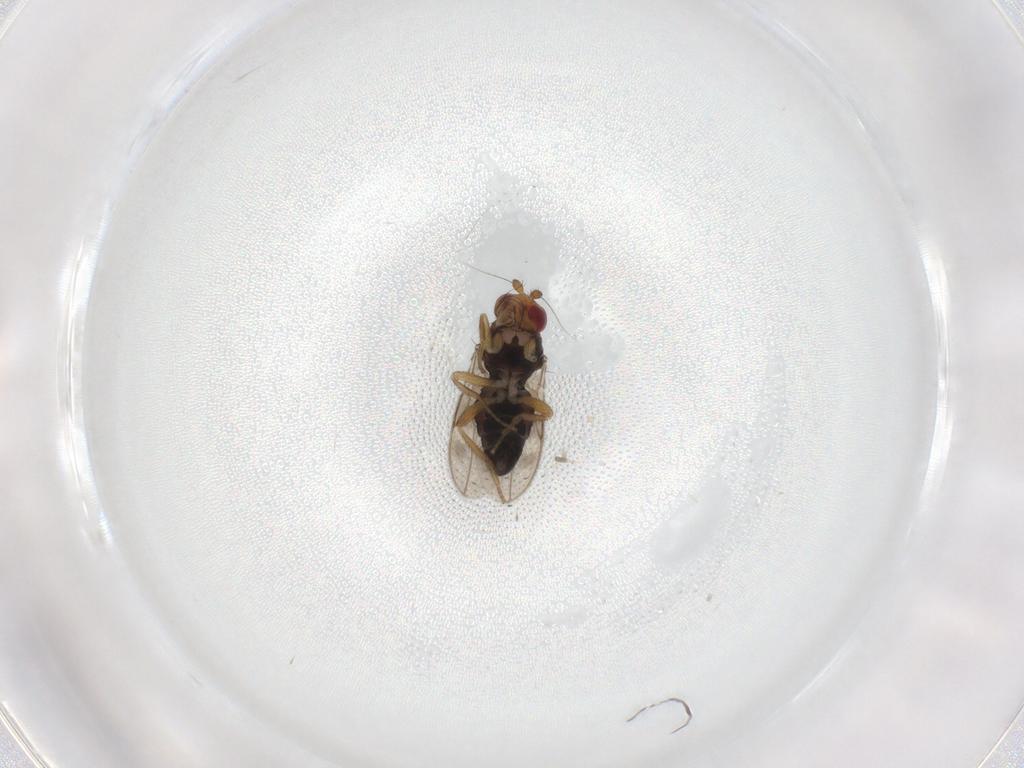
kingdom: Animalia
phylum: Arthropoda
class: Insecta
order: Diptera
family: Sphaeroceridae
